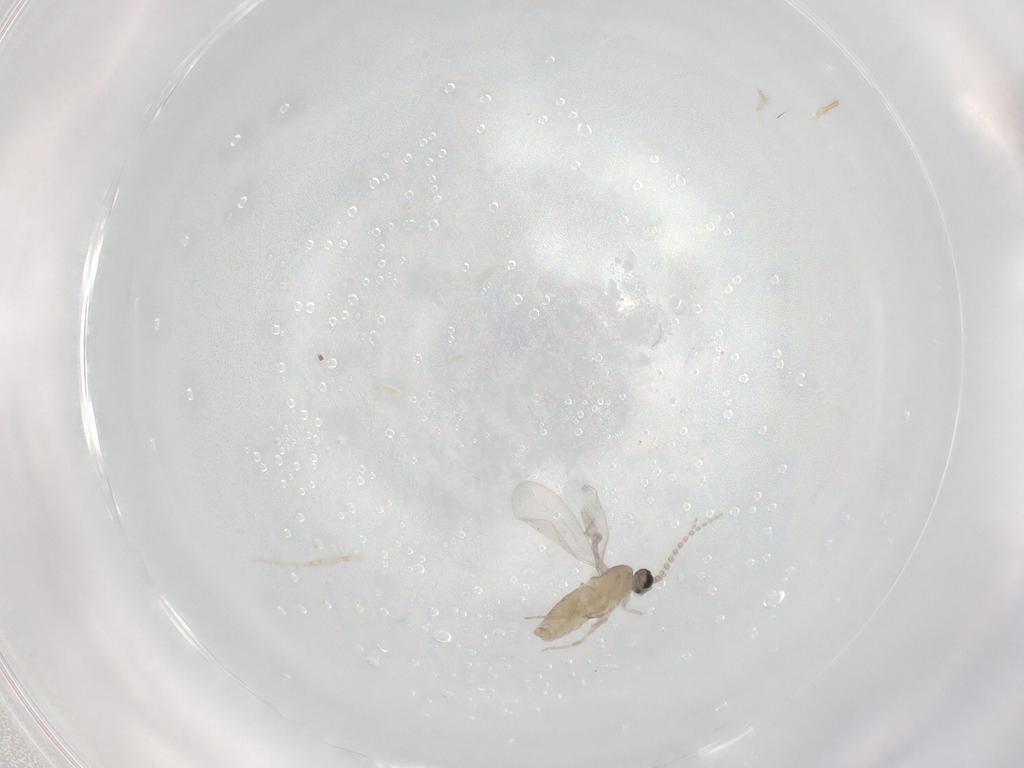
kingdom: Animalia
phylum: Arthropoda
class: Insecta
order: Diptera
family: Cecidomyiidae
